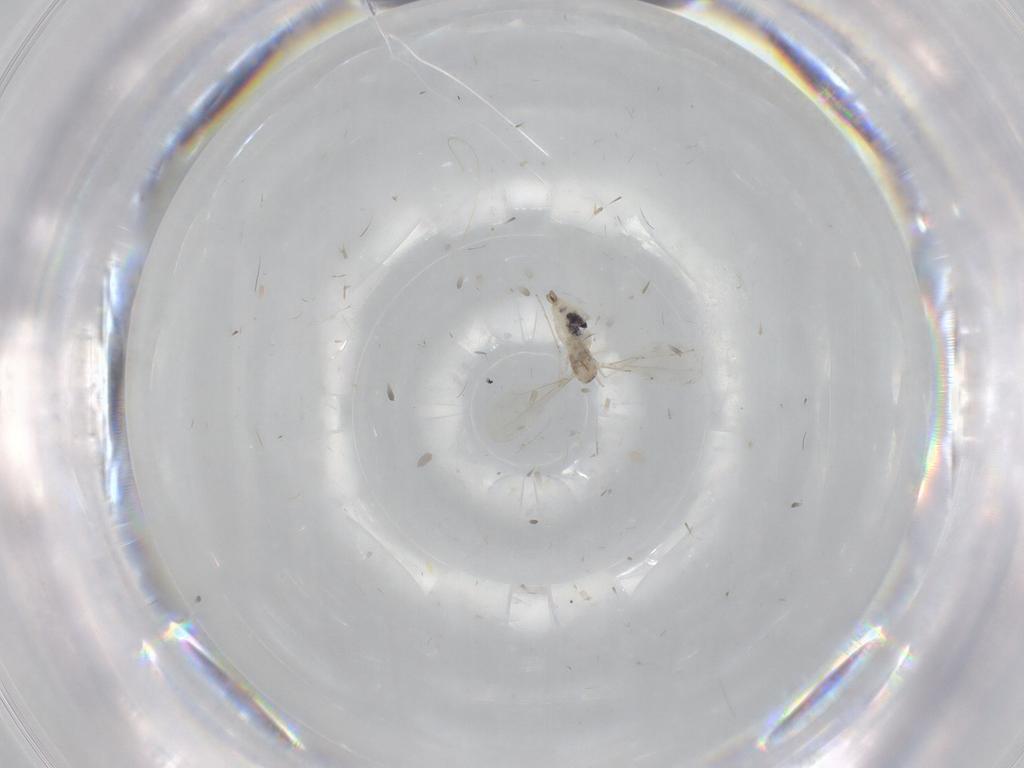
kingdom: Animalia
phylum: Arthropoda
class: Insecta
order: Diptera
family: Cecidomyiidae
